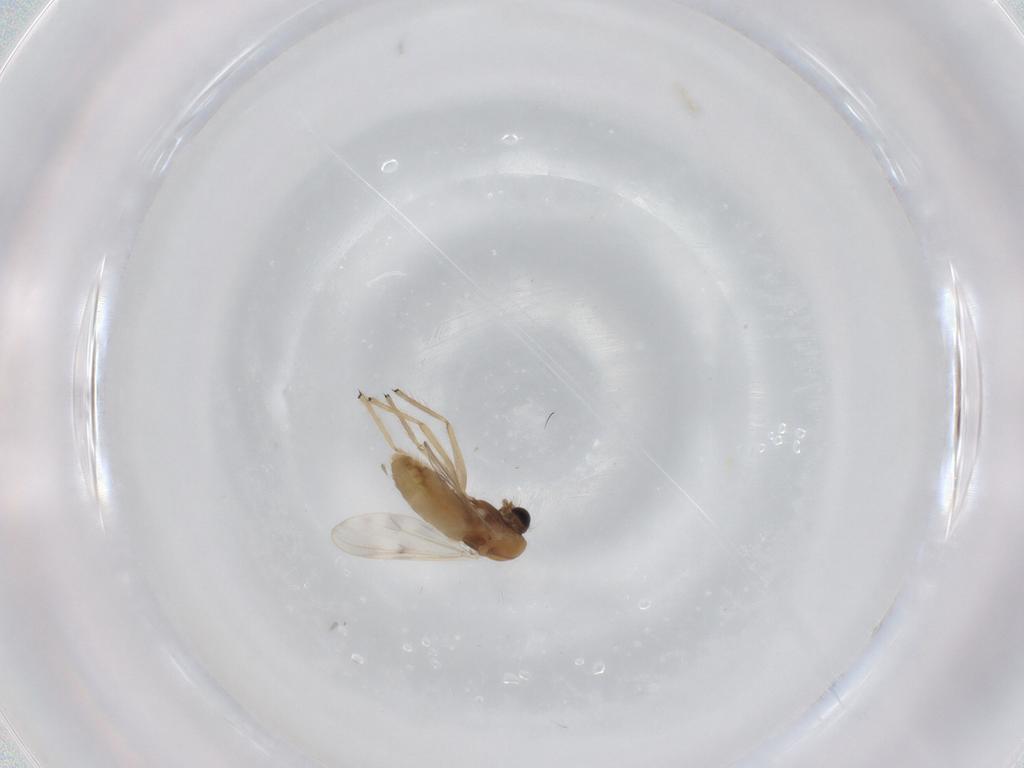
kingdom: Animalia
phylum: Arthropoda
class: Insecta
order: Diptera
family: Chironomidae
